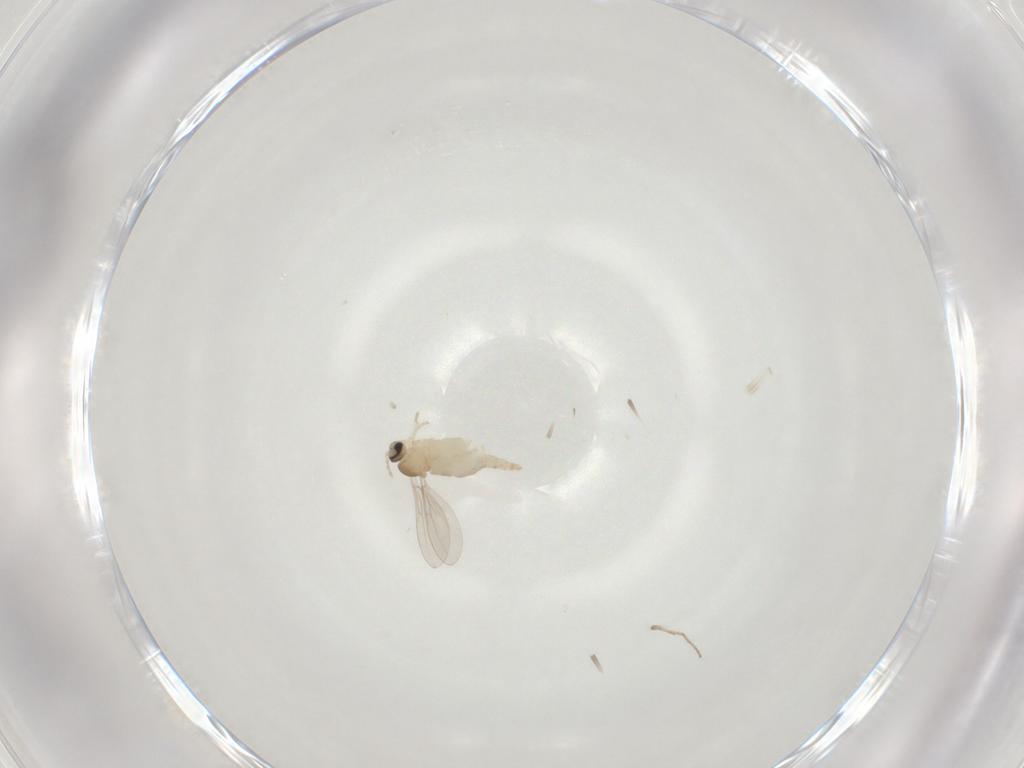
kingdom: Animalia
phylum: Arthropoda
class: Insecta
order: Diptera
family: Cecidomyiidae
